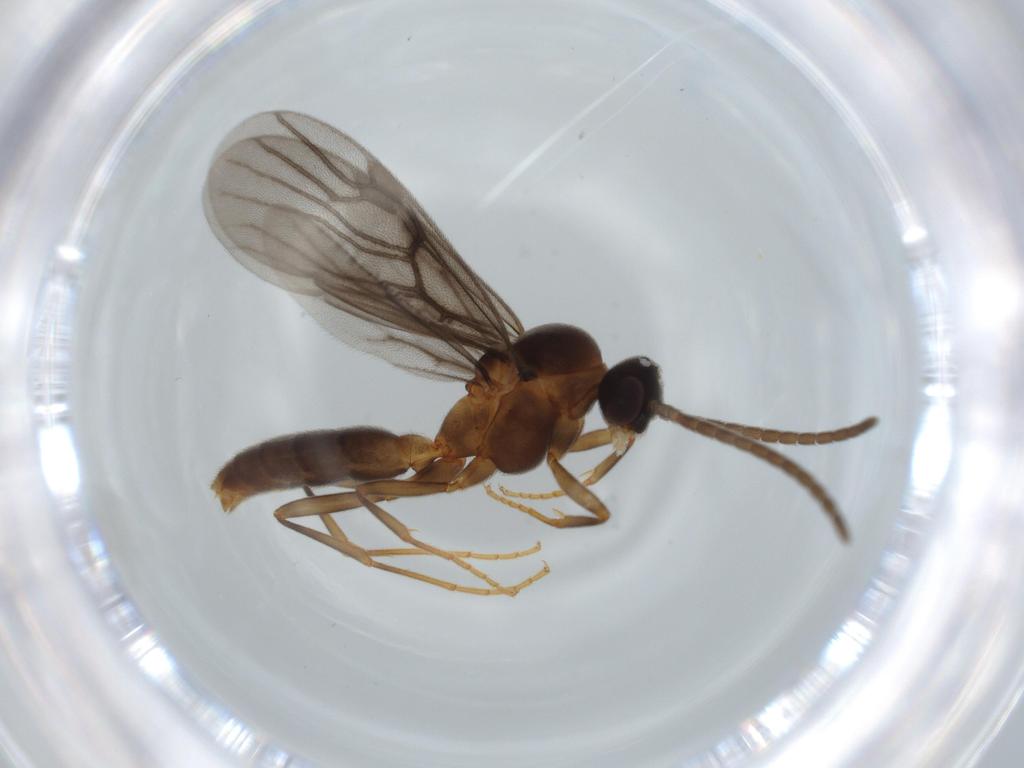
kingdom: Animalia
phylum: Arthropoda
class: Insecta
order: Hymenoptera
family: Formicidae
